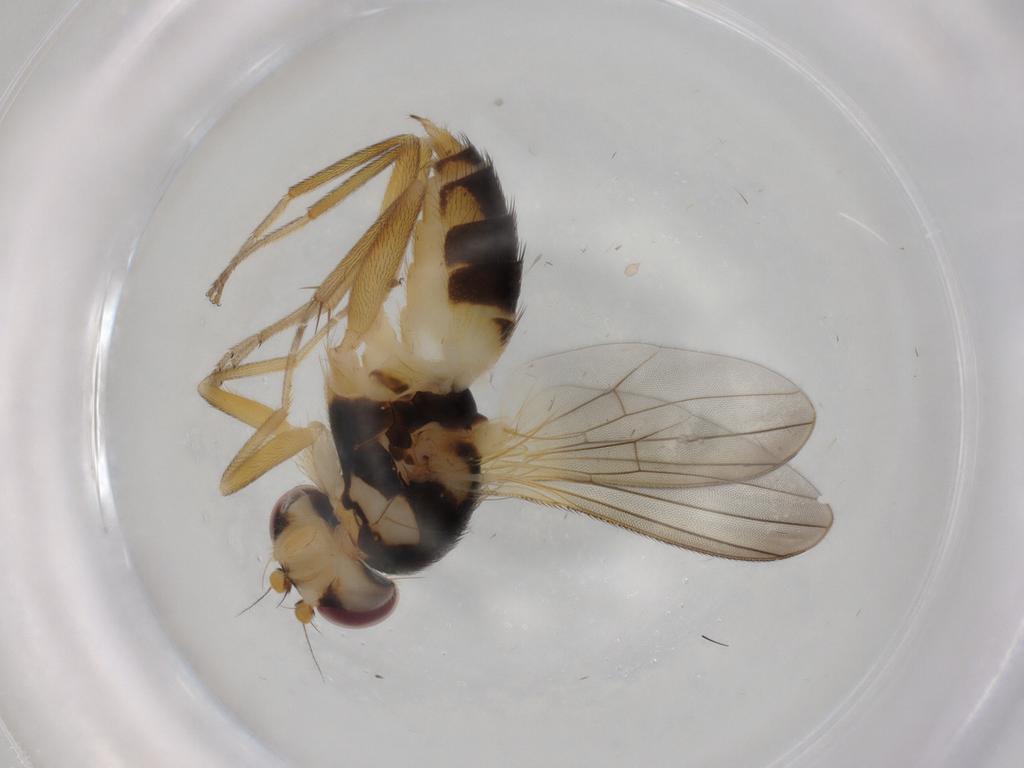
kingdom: Animalia
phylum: Arthropoda
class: Insecta
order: Diptera
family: Clusiidae
